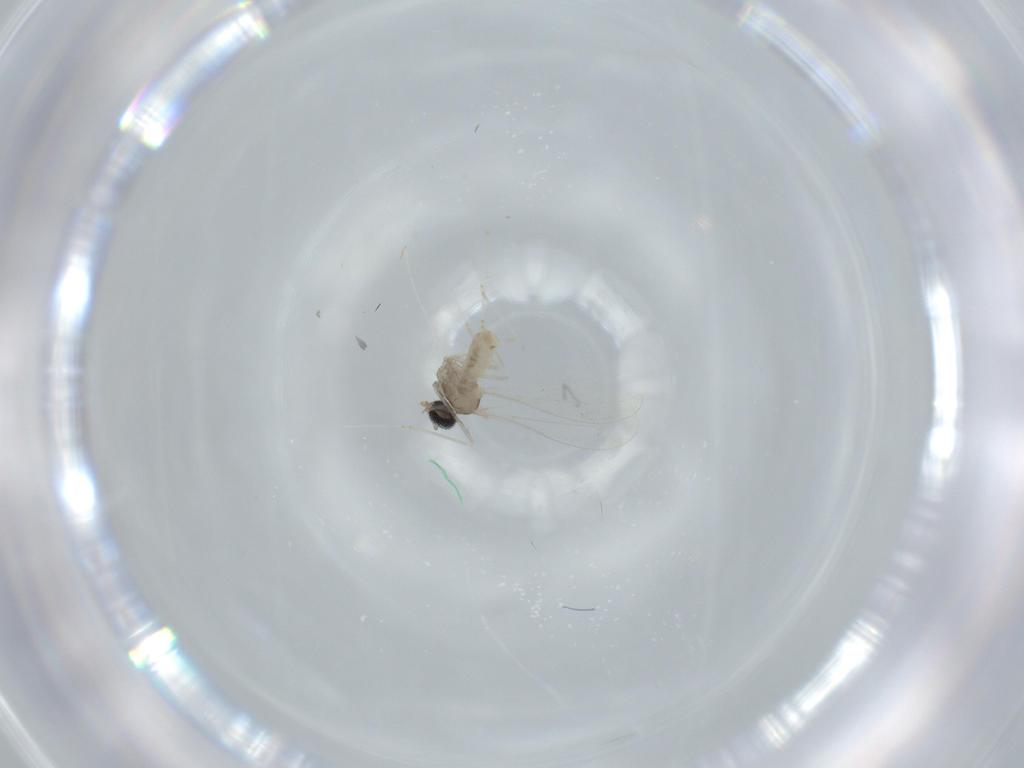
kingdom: Animalia
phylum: Arthropoda
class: Insecta
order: Diptera
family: Cecidomyiidae
